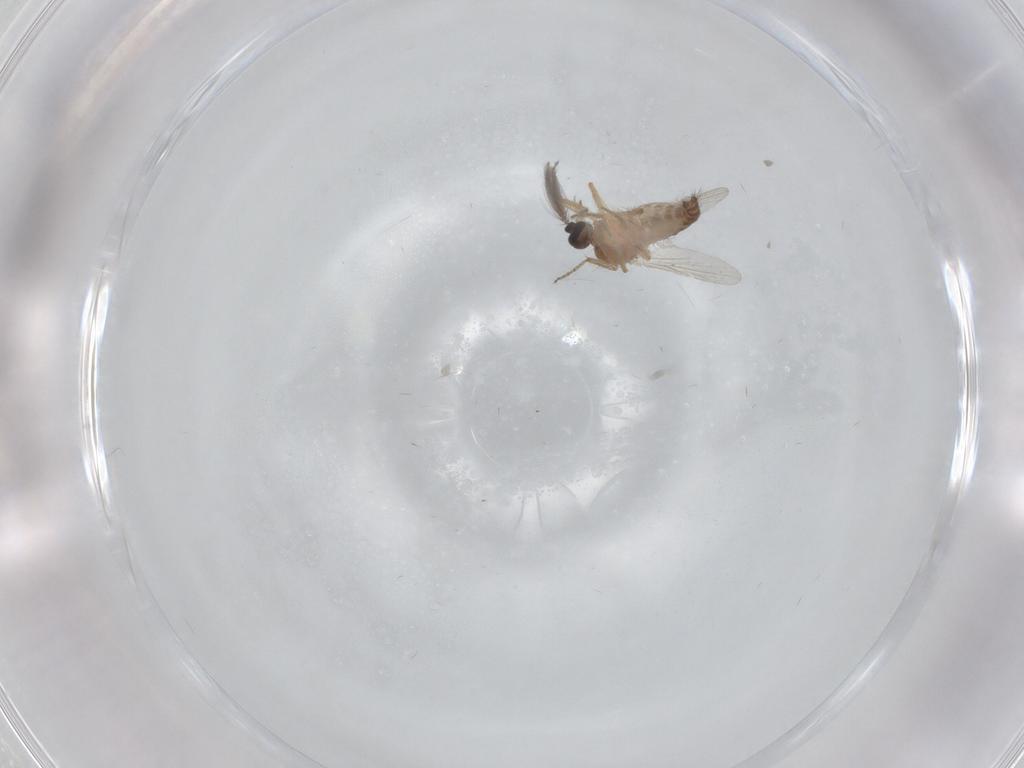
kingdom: Animalia
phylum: Arthropoda
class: Insecta
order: Diptera
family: Ceratopogonidae
